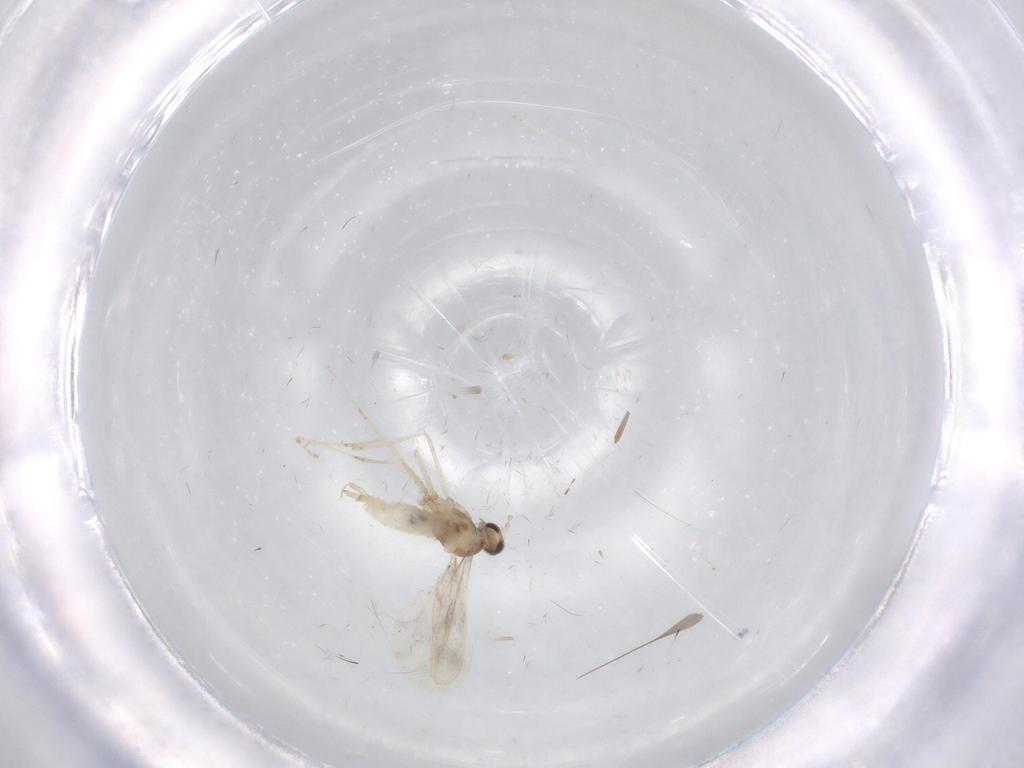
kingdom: Animalia
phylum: Arthropoda
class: Insecta
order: Diptera
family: Cecidomyiidae
